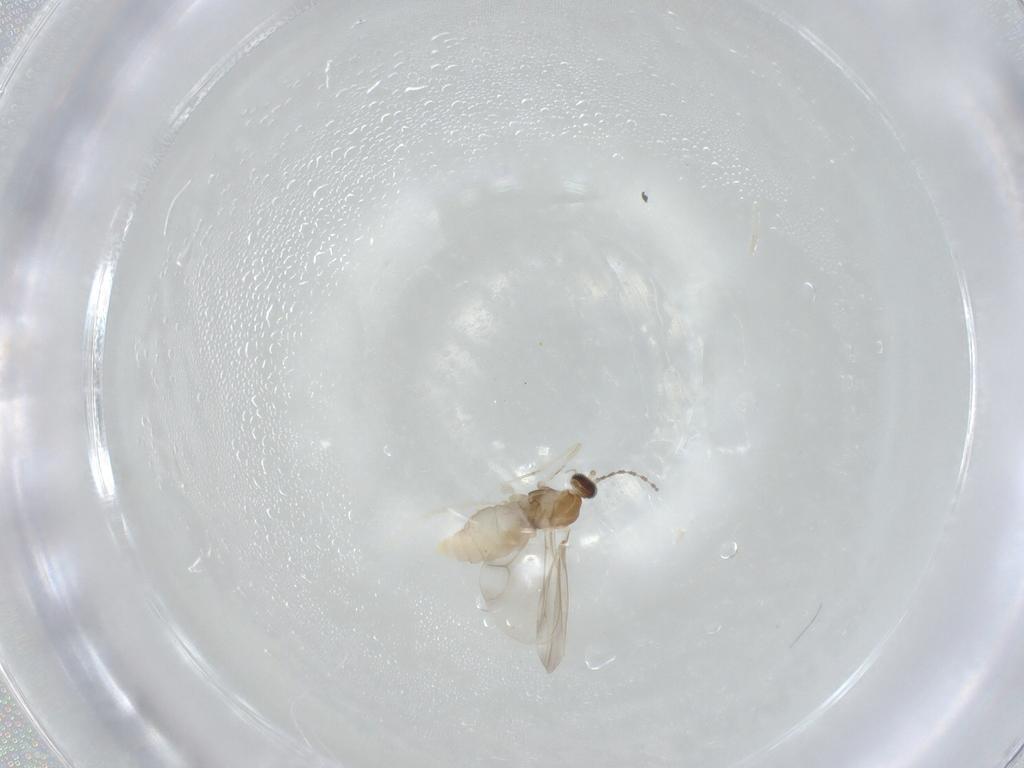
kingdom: Animalia
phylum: Arthropoda
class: Insecta
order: Diptera
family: Cecidomyiidae
